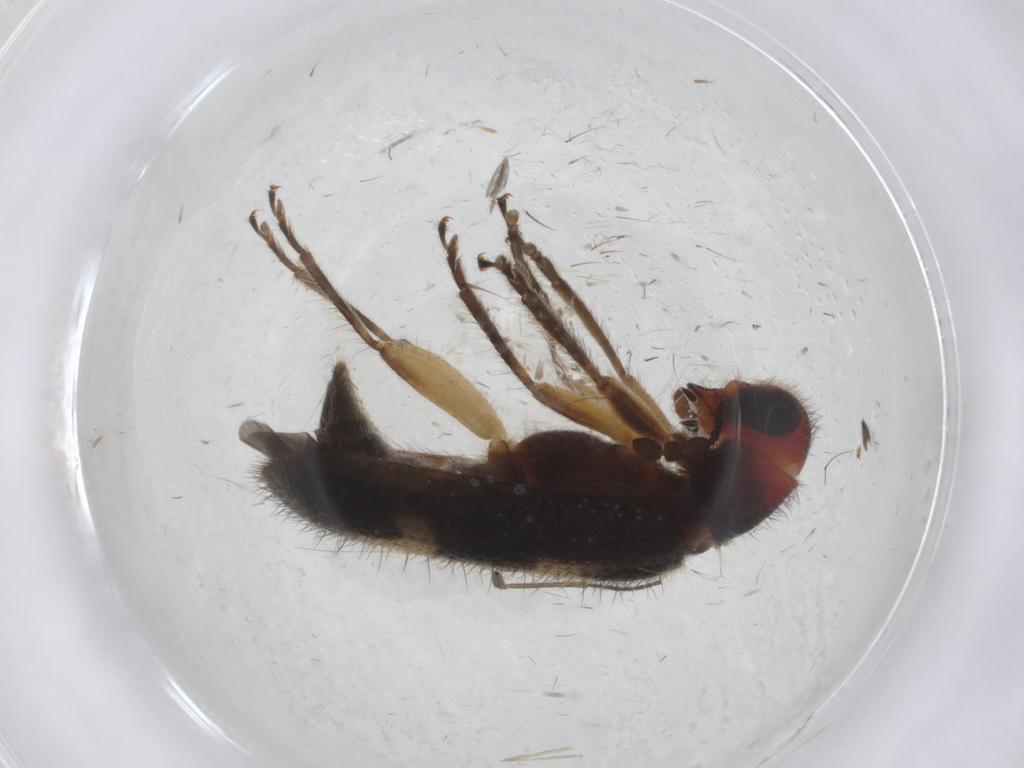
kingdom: Animalia
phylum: Arthropoda
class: Insecta
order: Coleoptera
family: Cleridae
